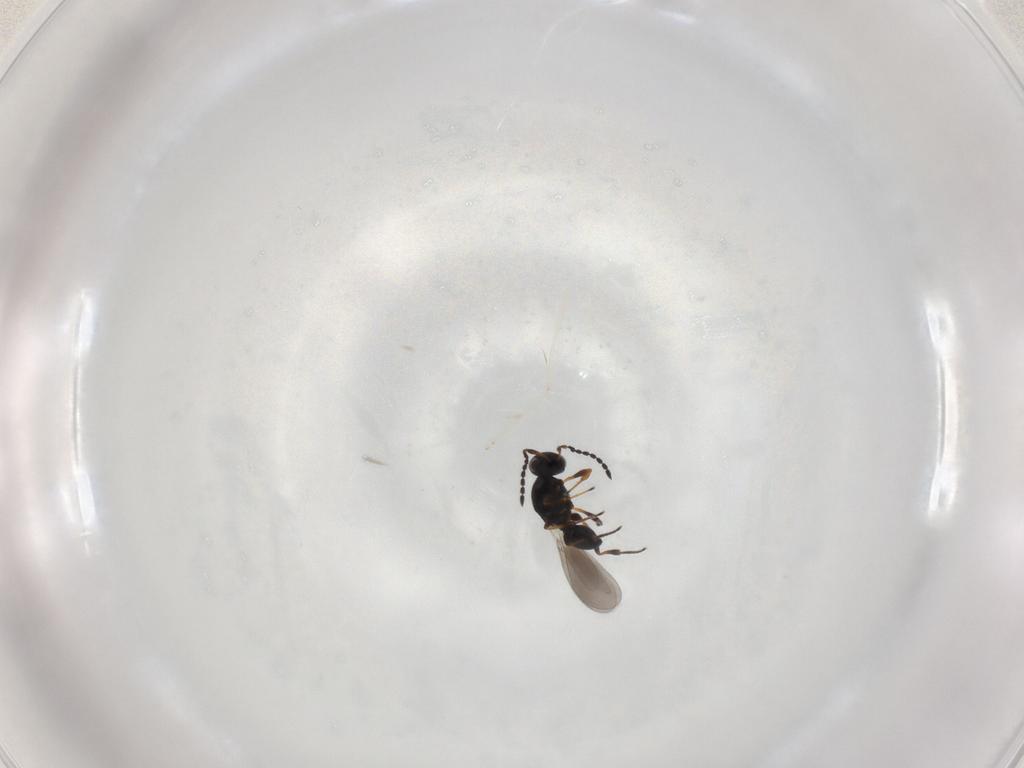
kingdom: Animalia
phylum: Arthropoda
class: Insecta
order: Hymenoptera
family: Platygastridae
